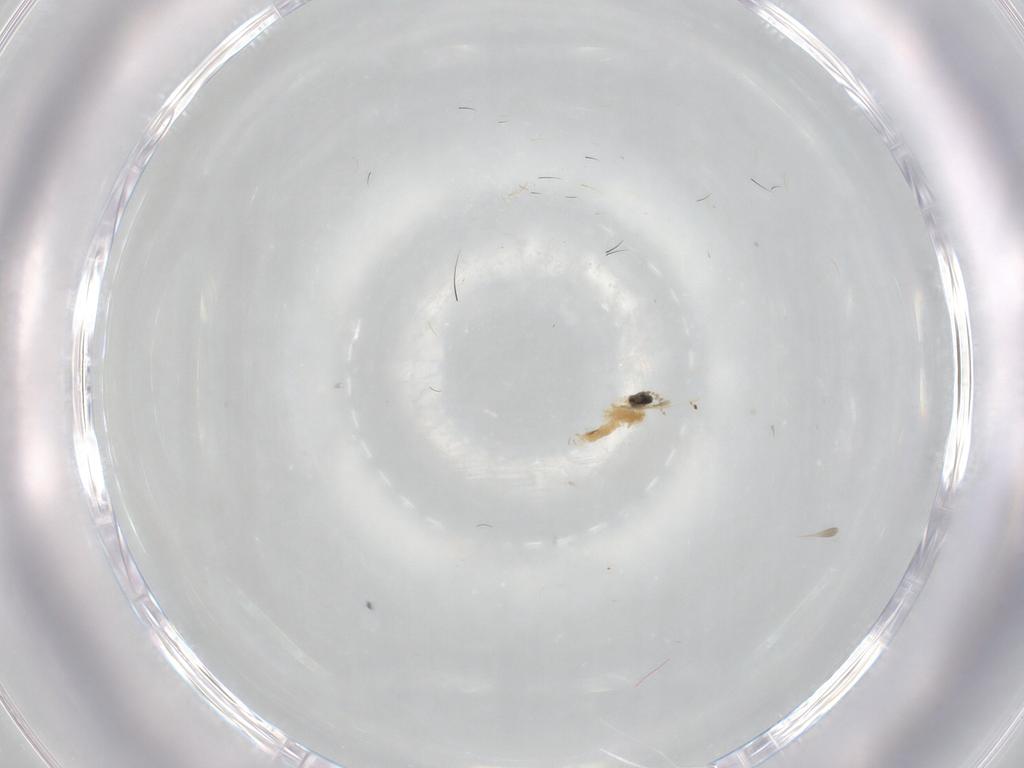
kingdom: Animalia
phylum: Arthropoda
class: Insecta
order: Diptera
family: Cecidomyiidae
